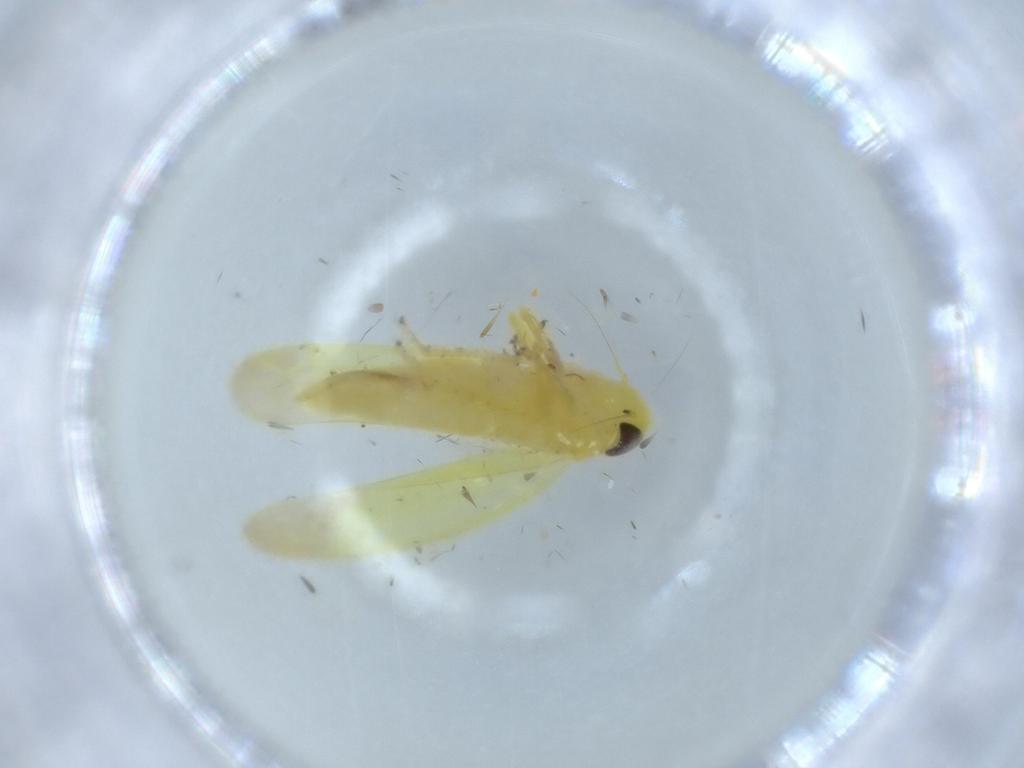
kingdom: Animalia
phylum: Arthropoda
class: Insecta
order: Hemiptera
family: Cicadellidae
